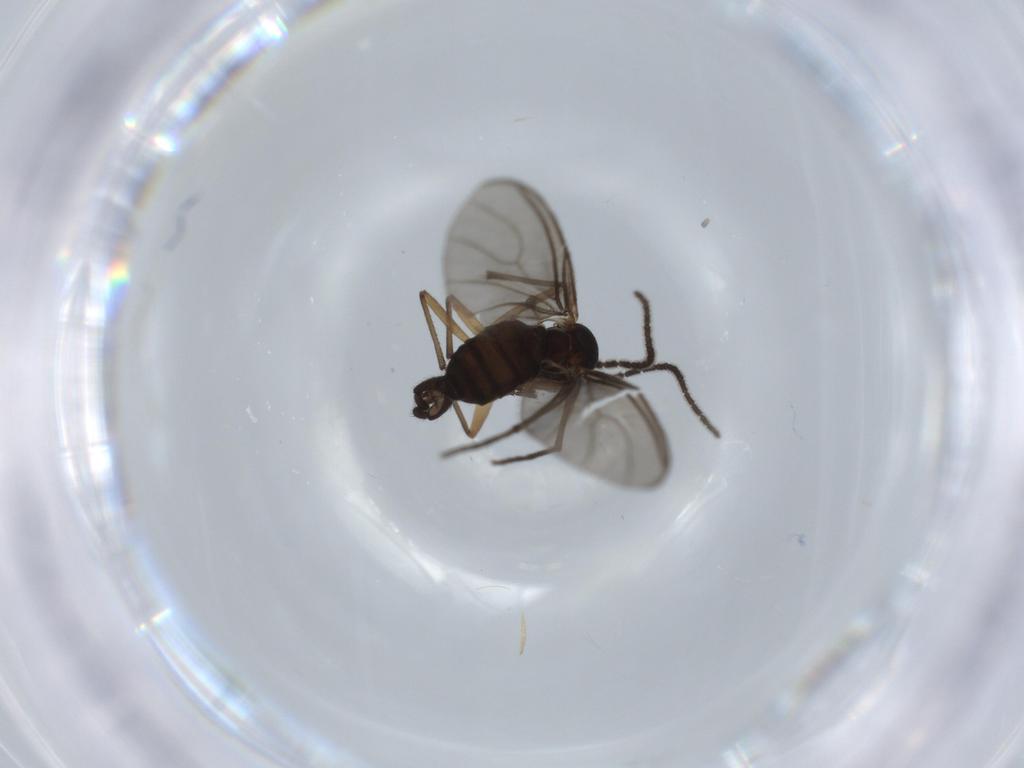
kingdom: Animalia
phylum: Arthropoda
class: Insecta
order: Diptera
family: Sciaridae
